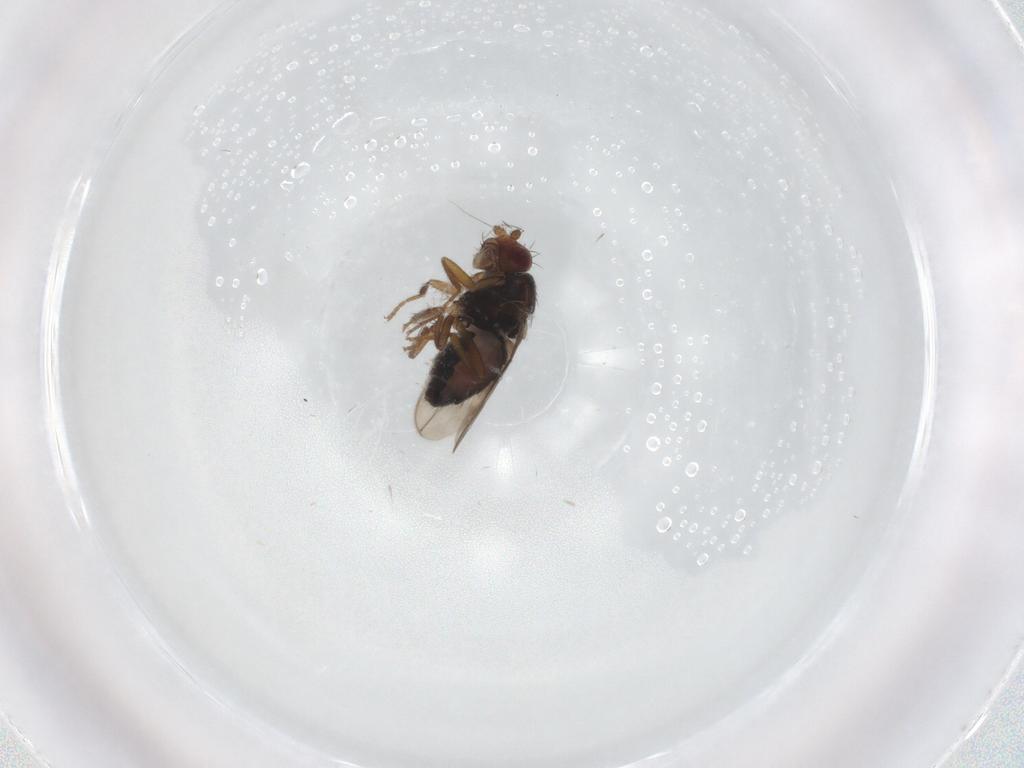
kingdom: Animalia
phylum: Arthropoda
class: Insecta
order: Diptera
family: Sphaeroceridae
